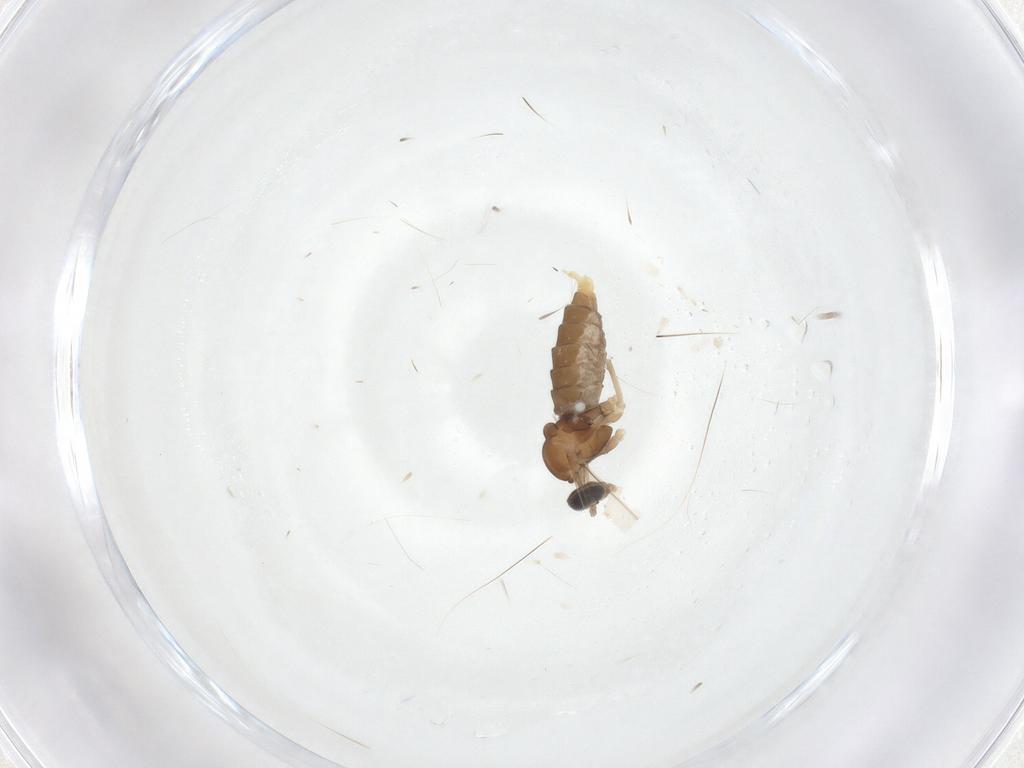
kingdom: Animalia
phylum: Arthropoda
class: Insecta
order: Diptera
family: Cecidomyiidae
